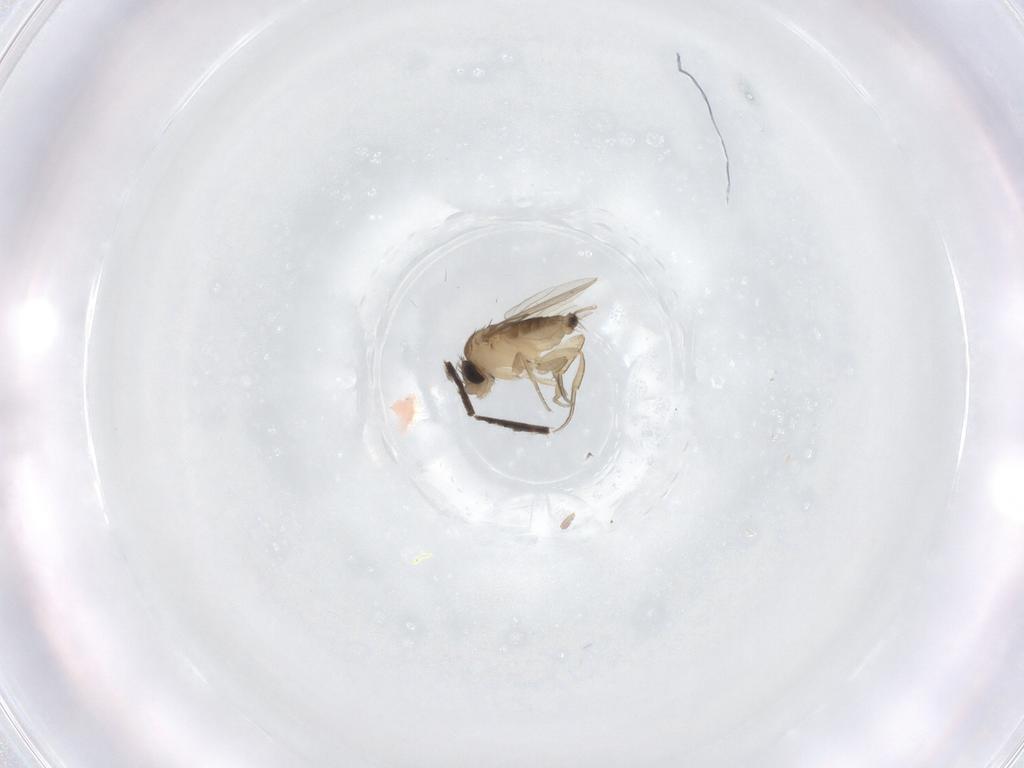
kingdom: Animalia
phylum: Arthropoda
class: Insecta
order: Diptera
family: Phoridae
